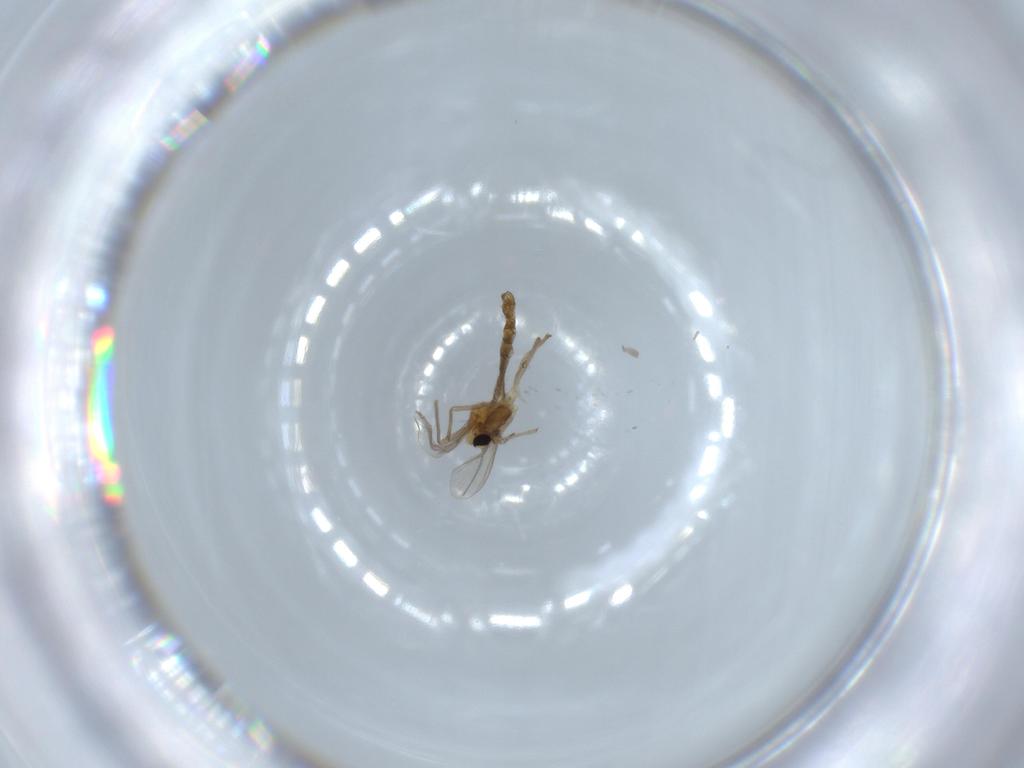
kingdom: Animalia
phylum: Arthropoda
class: Insecta
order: Diptera
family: Chironomidae
